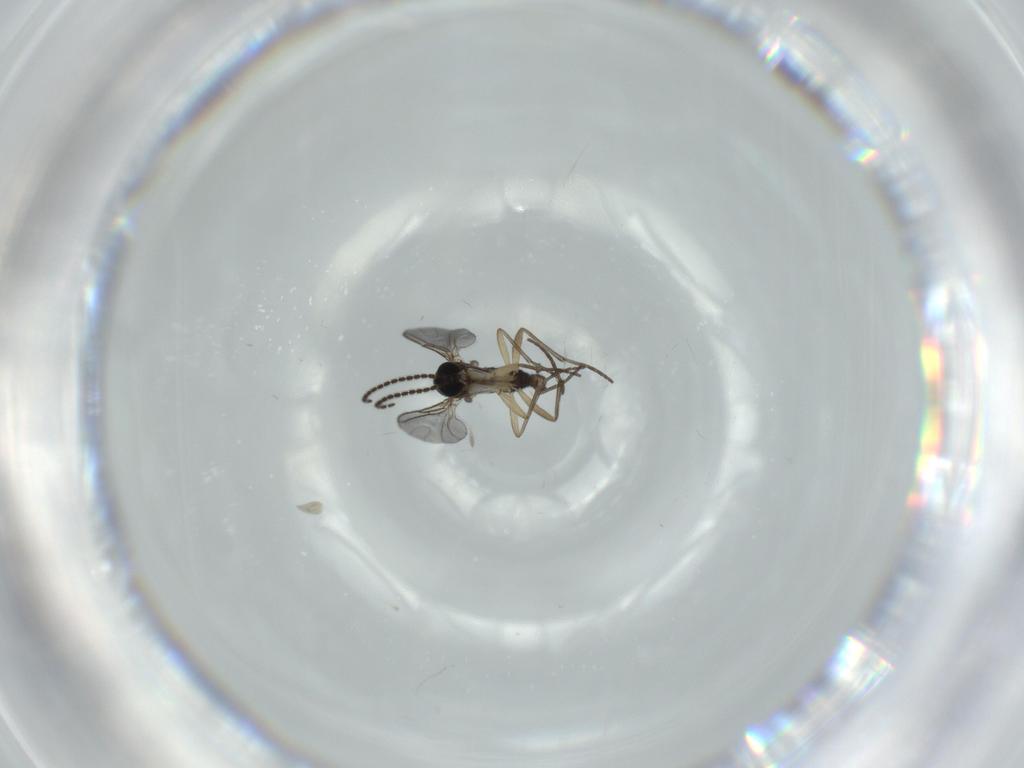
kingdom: Animalia
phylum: Arthropoda
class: Insecta
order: Diptera
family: Sciaridae
